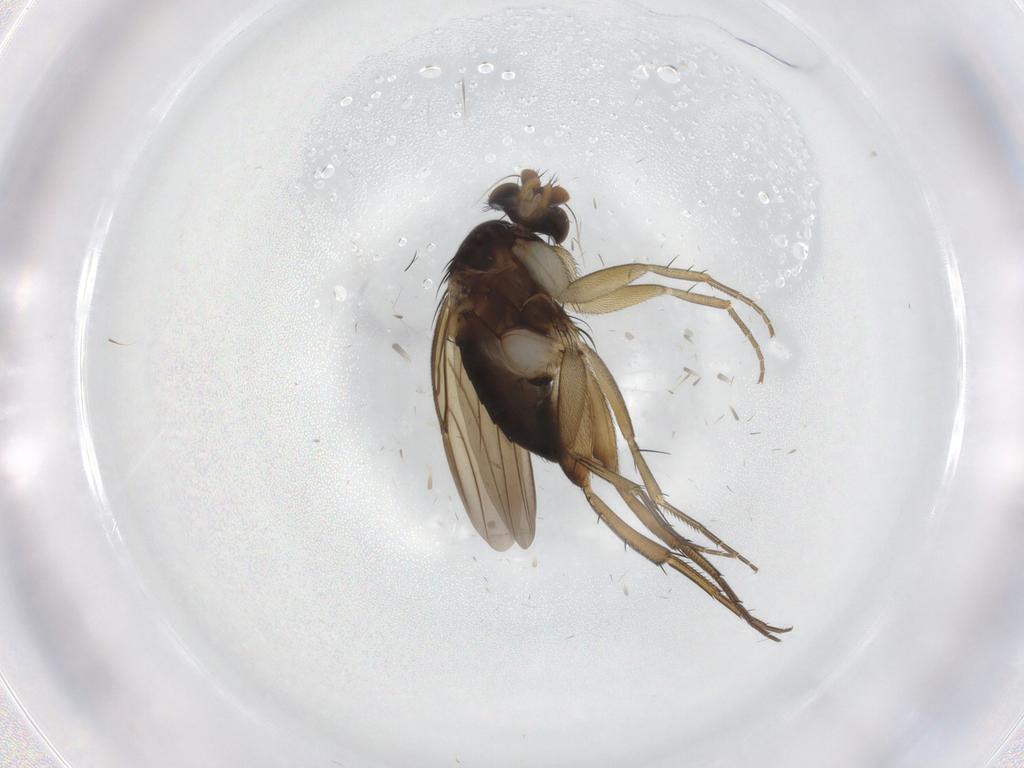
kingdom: Animalia
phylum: Arthropoda
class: Insecta
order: Diptera
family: Phoridae
